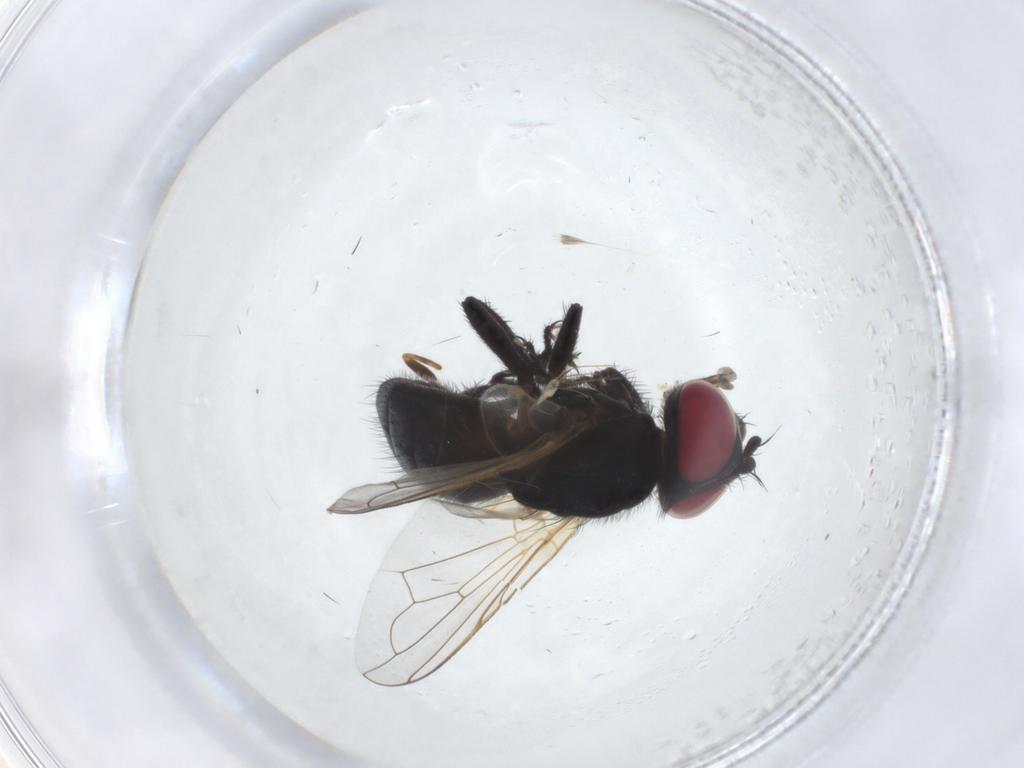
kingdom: Animalia
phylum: Arthropoda
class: Insecta
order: Diptera
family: Tachinidae
